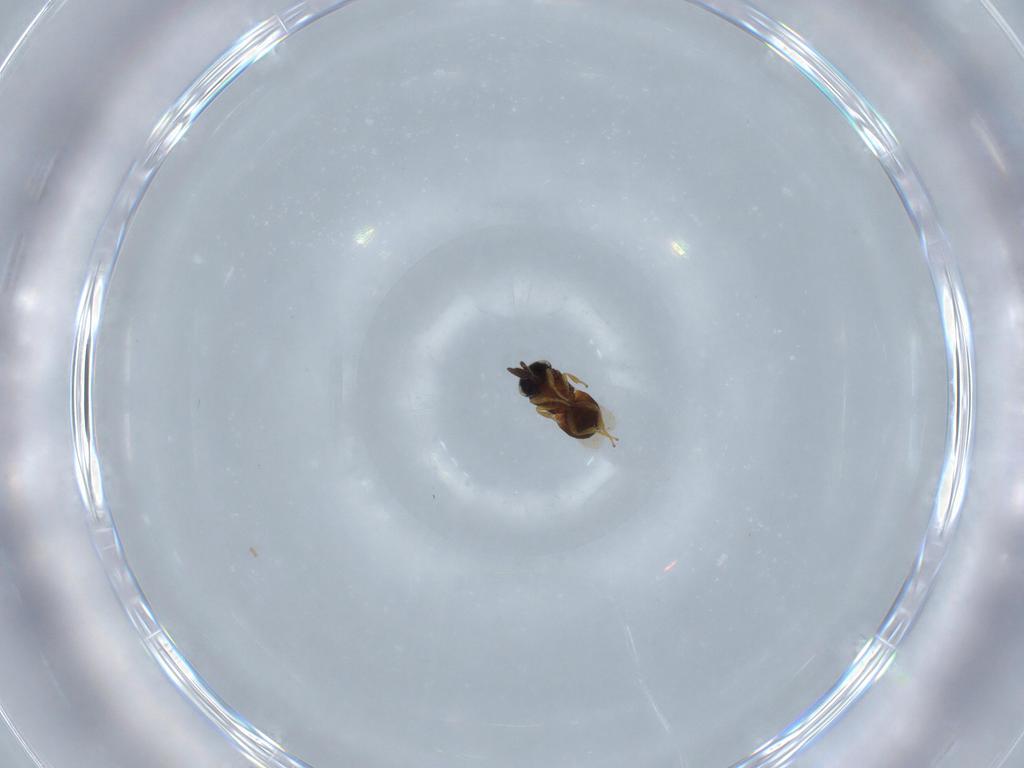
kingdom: Animalia
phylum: Arthropoda
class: Insecta
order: Hymenoptera
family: Scelionidae
